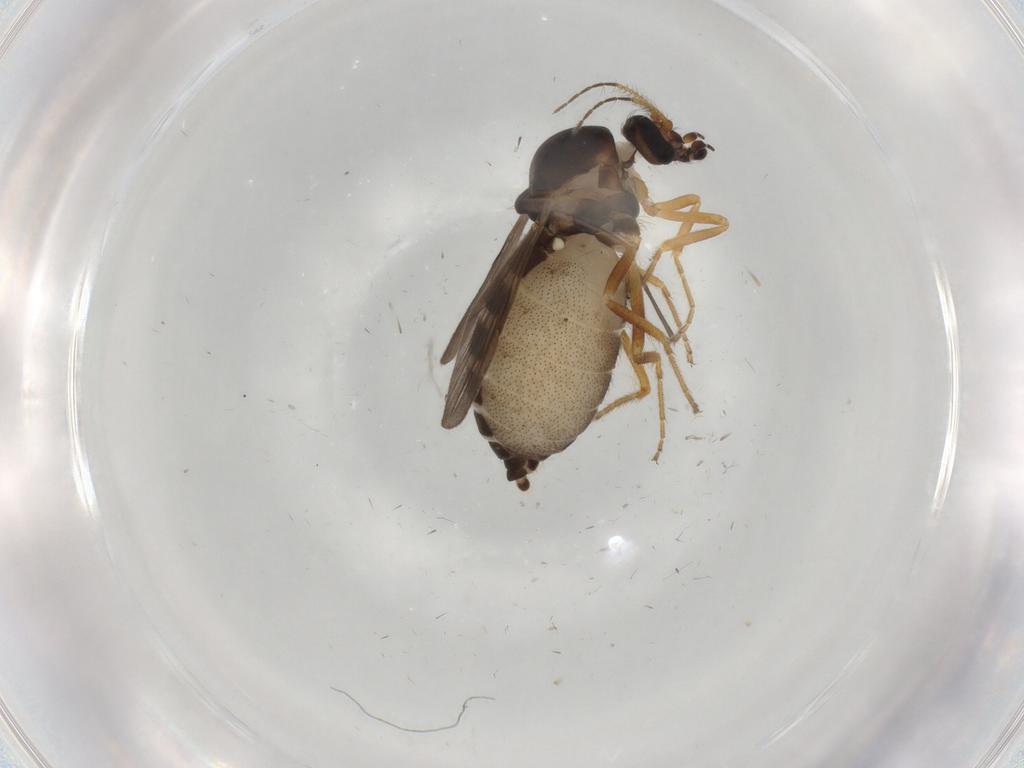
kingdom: Animalia
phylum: Arthropoda
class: Insecta
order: Diptera
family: Ceratopogonidae
